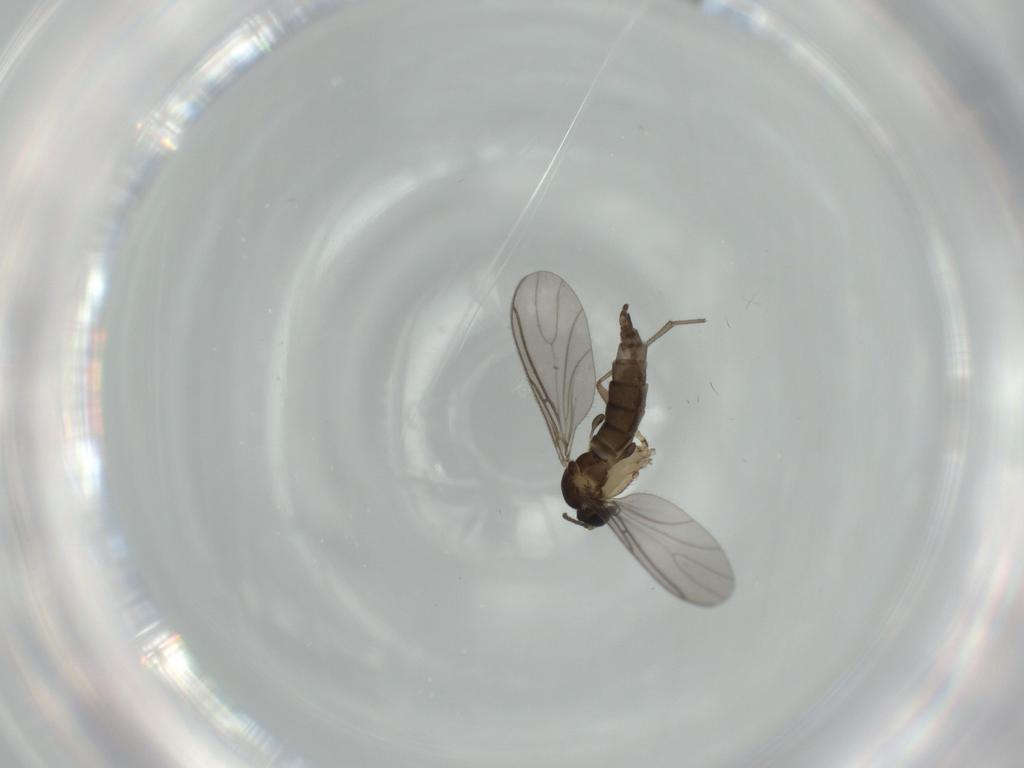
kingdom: Animalia
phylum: Arthropoda
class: Insecta
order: Diptera
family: Sciaridae
